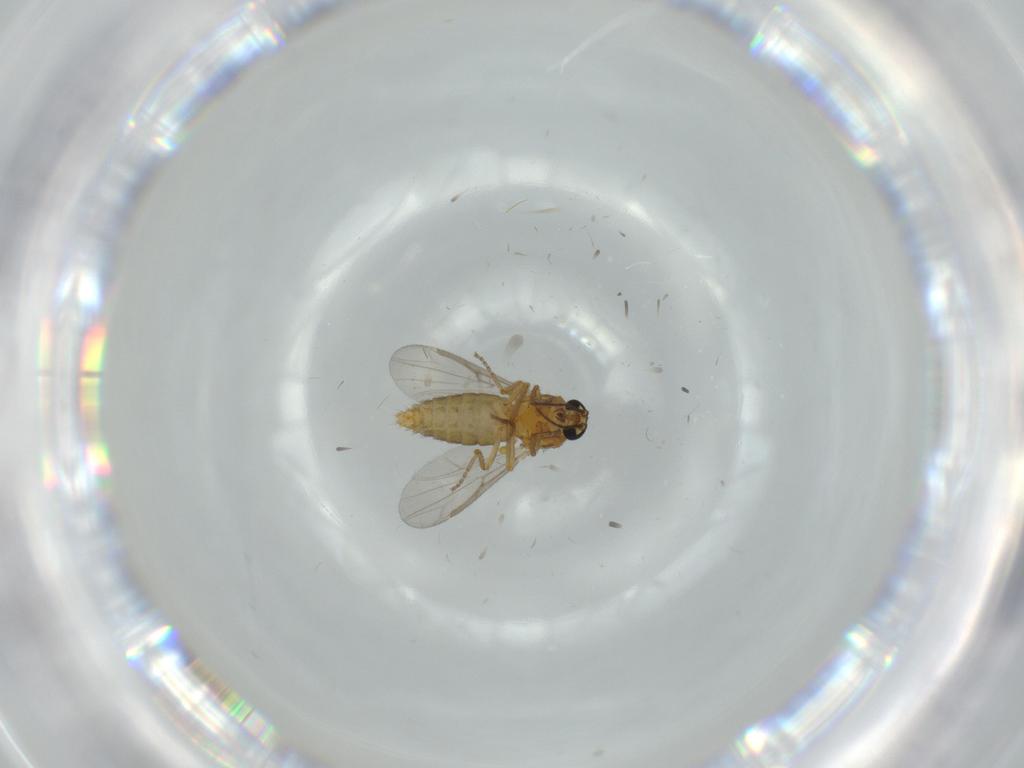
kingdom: Animalia
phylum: Arthropoda
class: Insecta
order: Diptera
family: Ceratopogonidae
